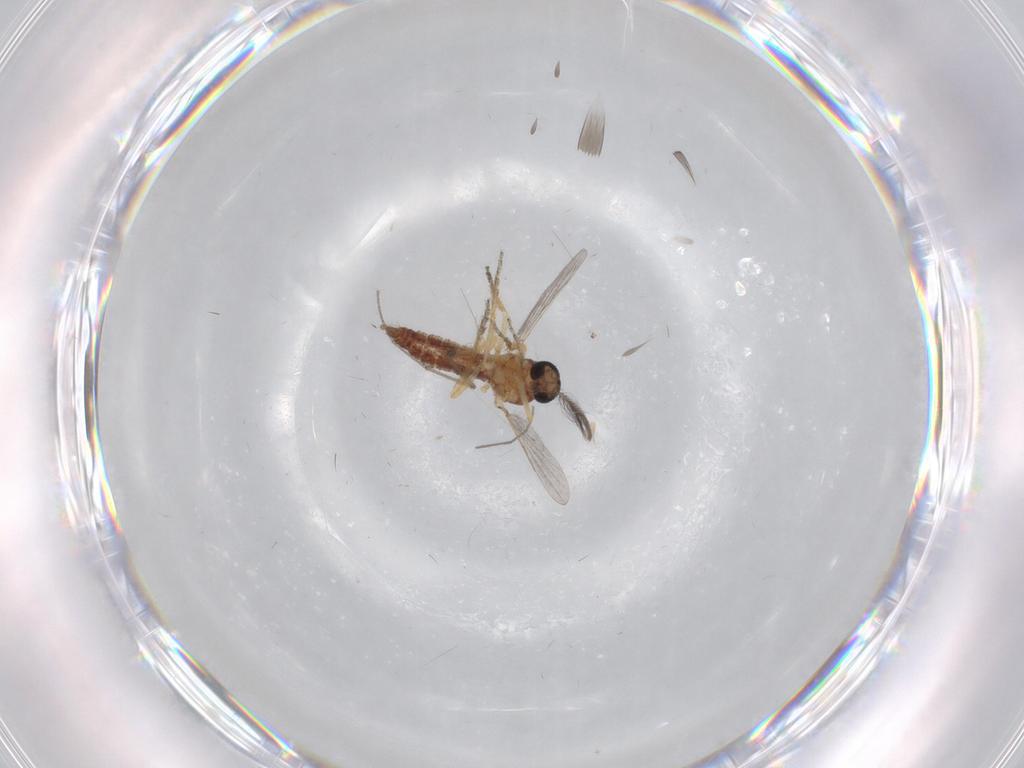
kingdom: Animalia
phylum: Arthropoda
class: Insecta
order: Diptera
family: Ceratopogonidae
